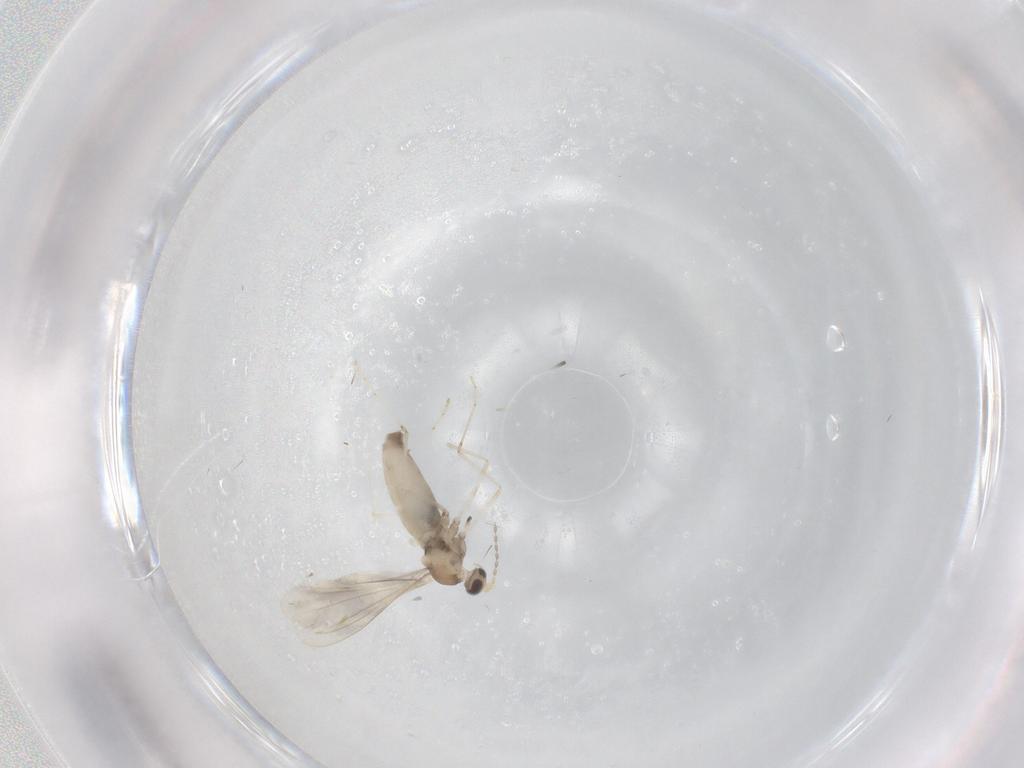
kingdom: Animalia
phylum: Arthropoda
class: Insecta
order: Diptera
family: Cecidomyiidae
